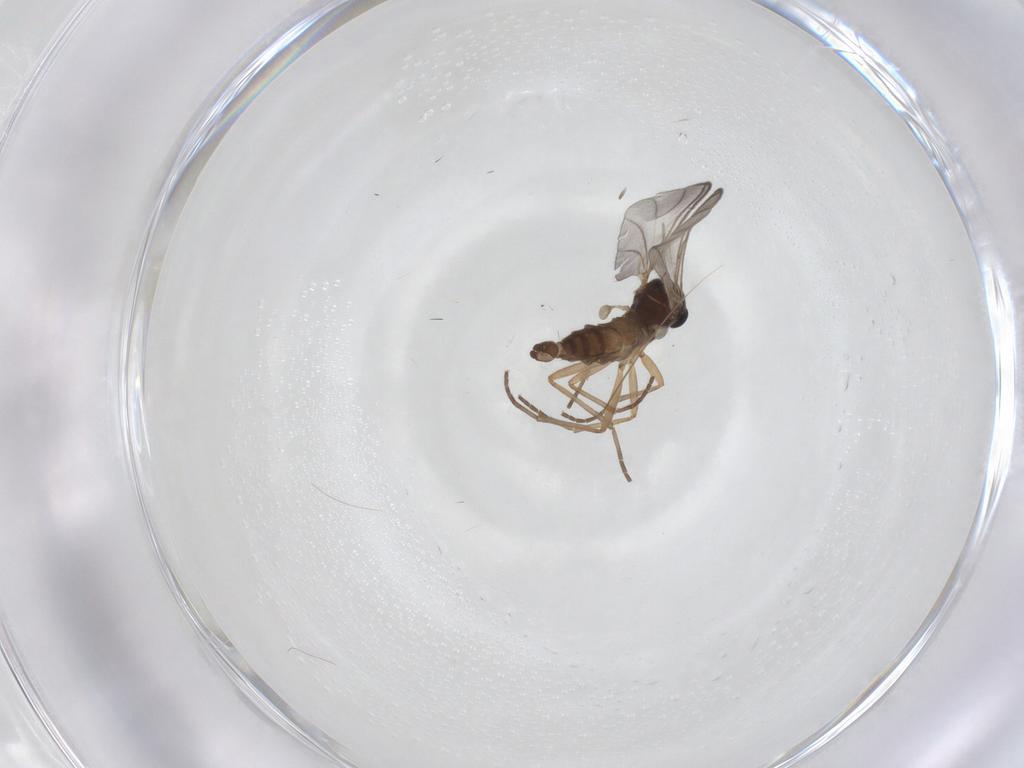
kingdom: Animalia
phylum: Arthropoda
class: Insecta
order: Diptera
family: Sciaridae
